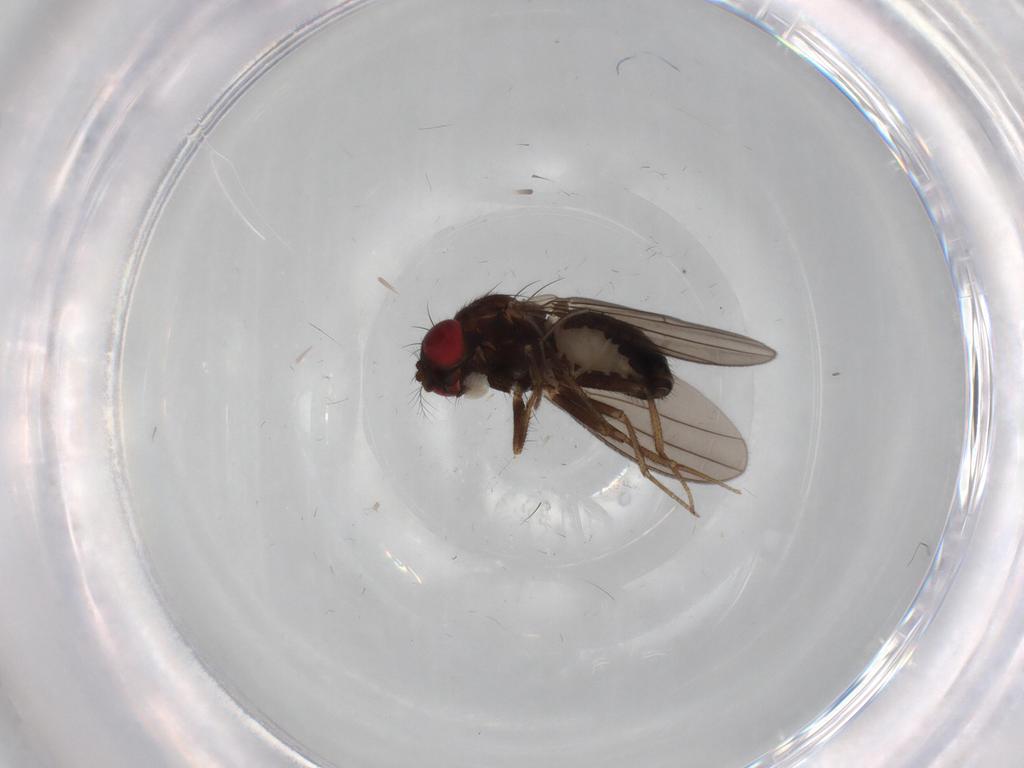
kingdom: Animalia
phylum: Arthropoda
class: Insecta
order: Diptera
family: Drosophilidae
